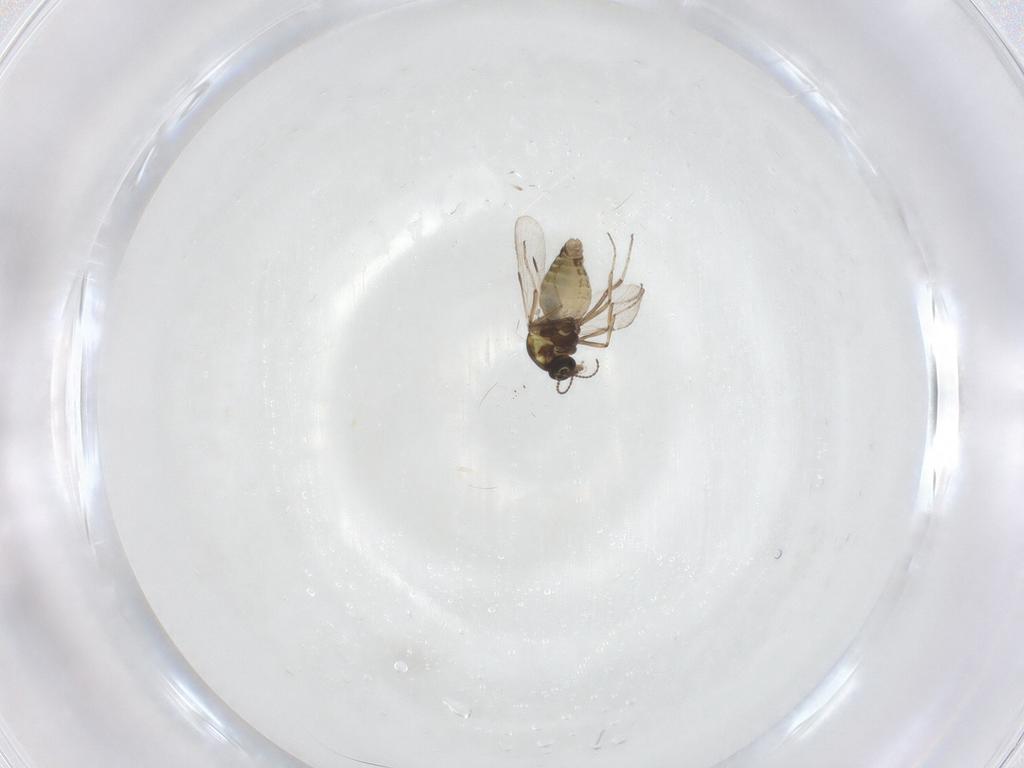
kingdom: Animalia
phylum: Arthropoda
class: Insecta
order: Diptera
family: Ceratopogonidae
